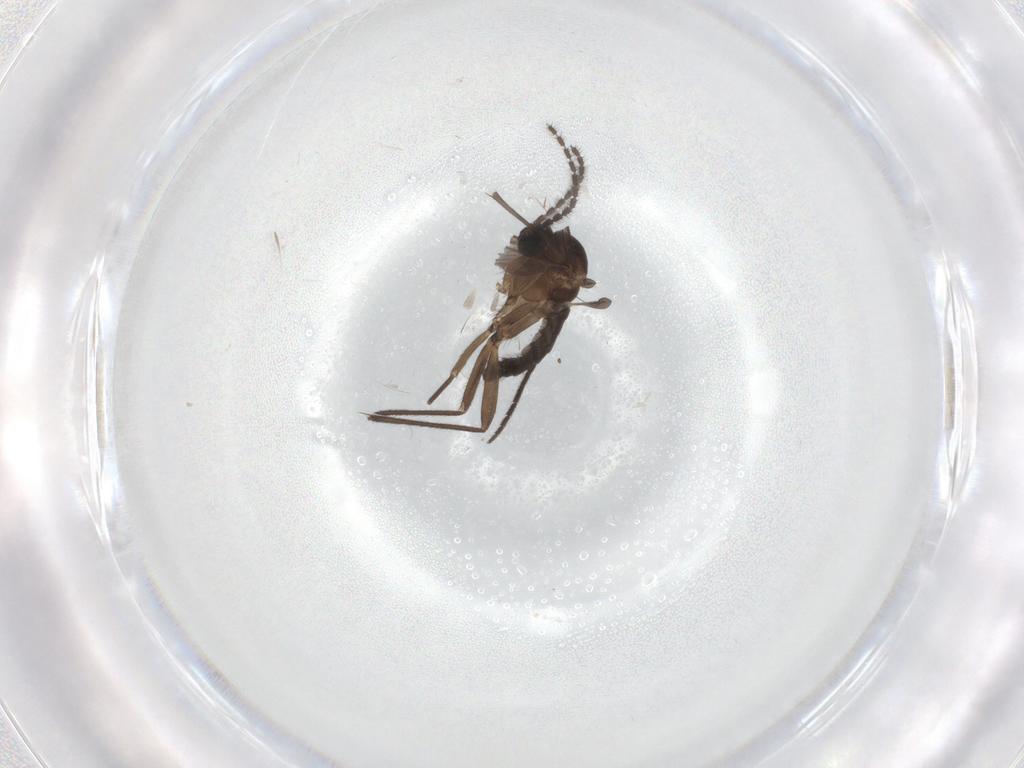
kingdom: Animalia
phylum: Arthropoda
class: Insecta
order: Diptera
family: Sciaridae
